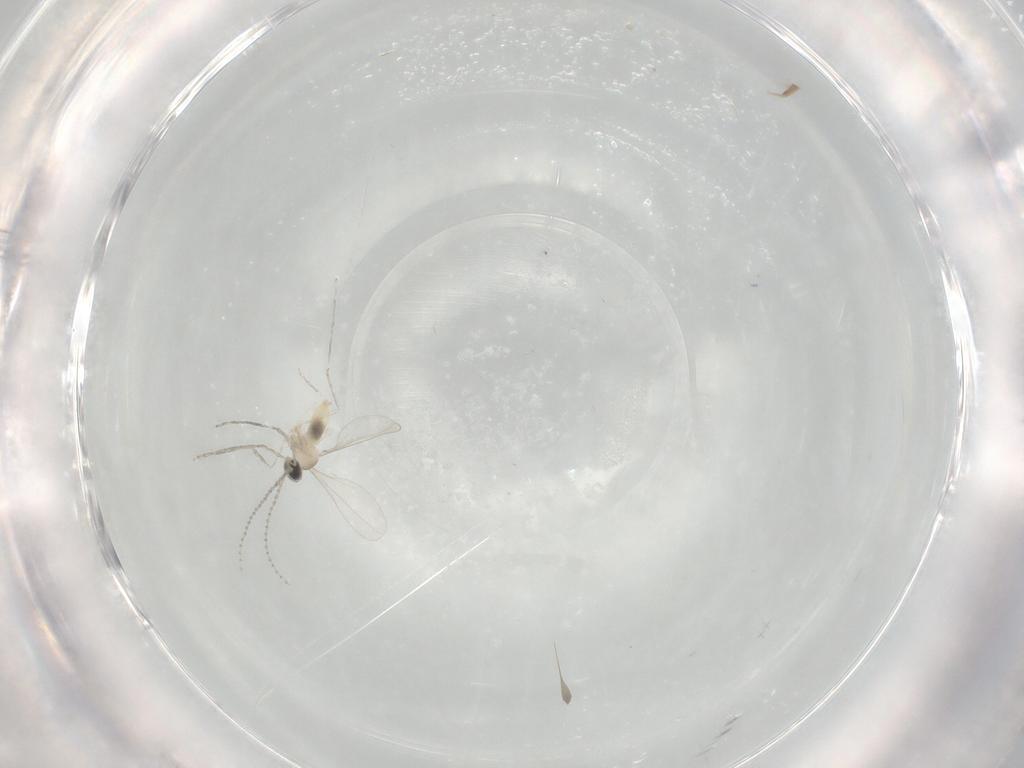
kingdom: Animalia
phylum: Arthropoda
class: Insecta
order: Diptera
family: Cecidomyiidae
